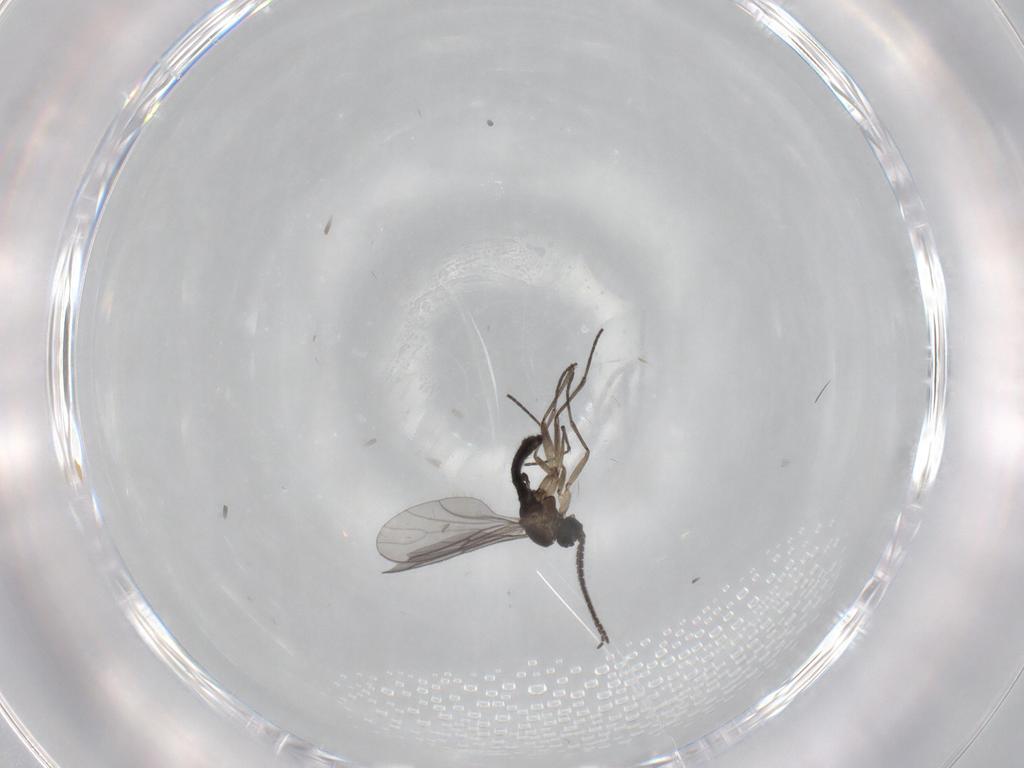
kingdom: Animalia
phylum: Arthropoda
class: Insecta
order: Diptera
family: Sciaridae
